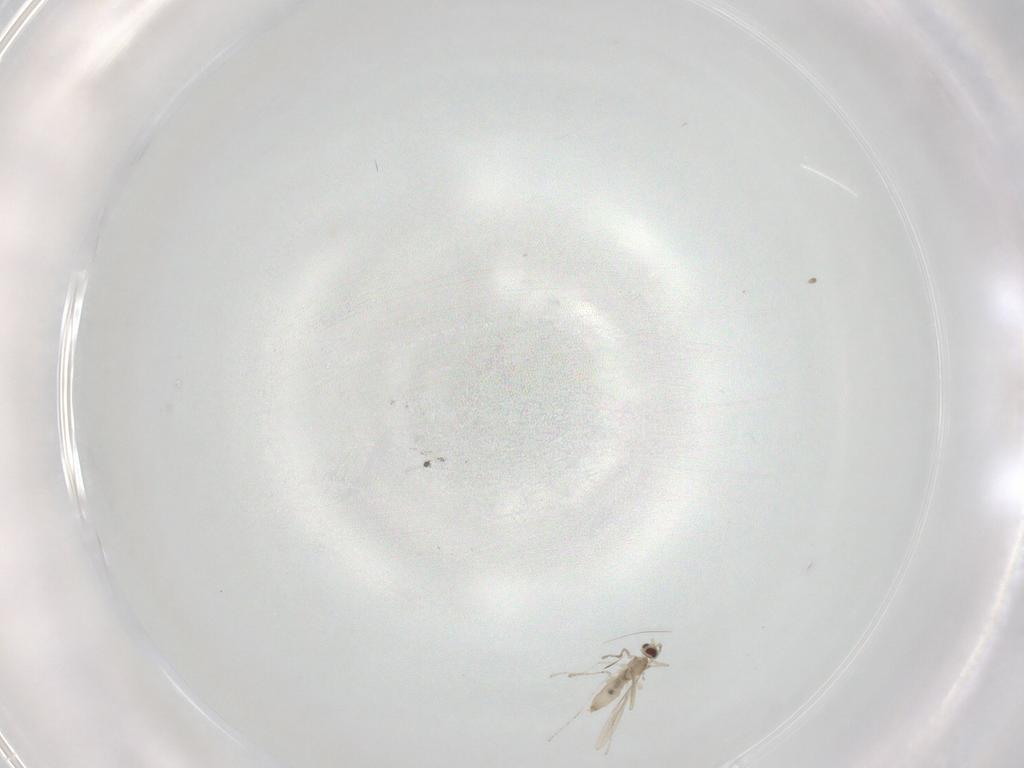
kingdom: Animalia
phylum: Arthropoda
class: Insecta
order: Diptera
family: Cecidomyiidae
